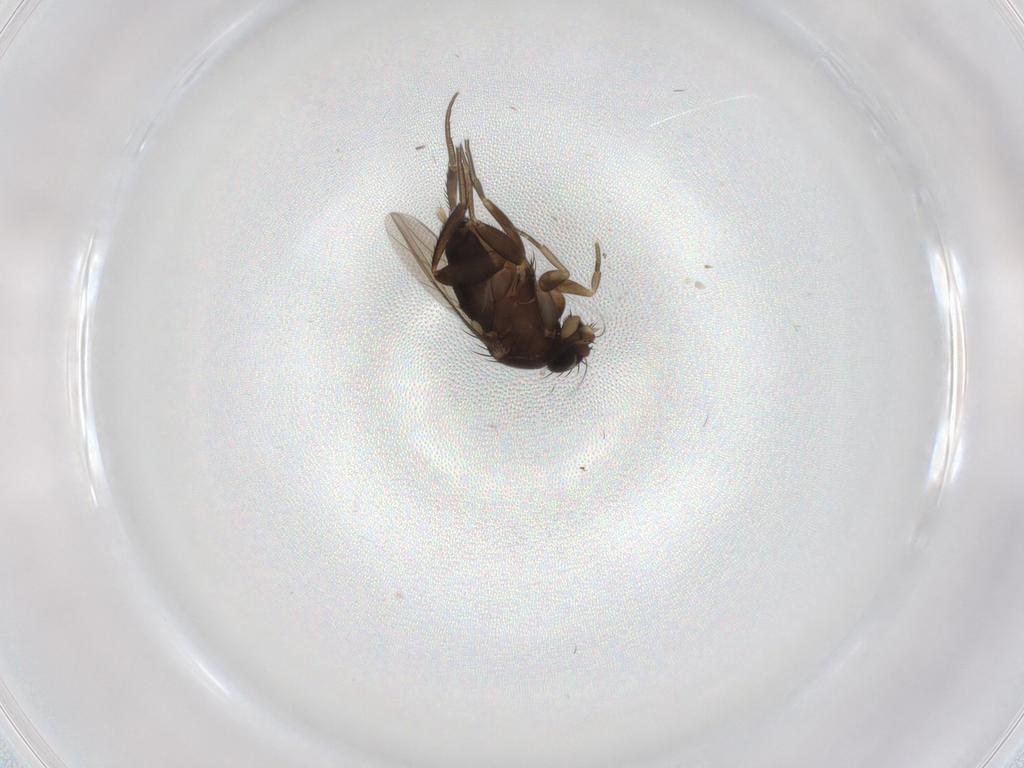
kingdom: Animalia
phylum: Arthropoda
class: Insecta
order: Diptera
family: Phoridae
